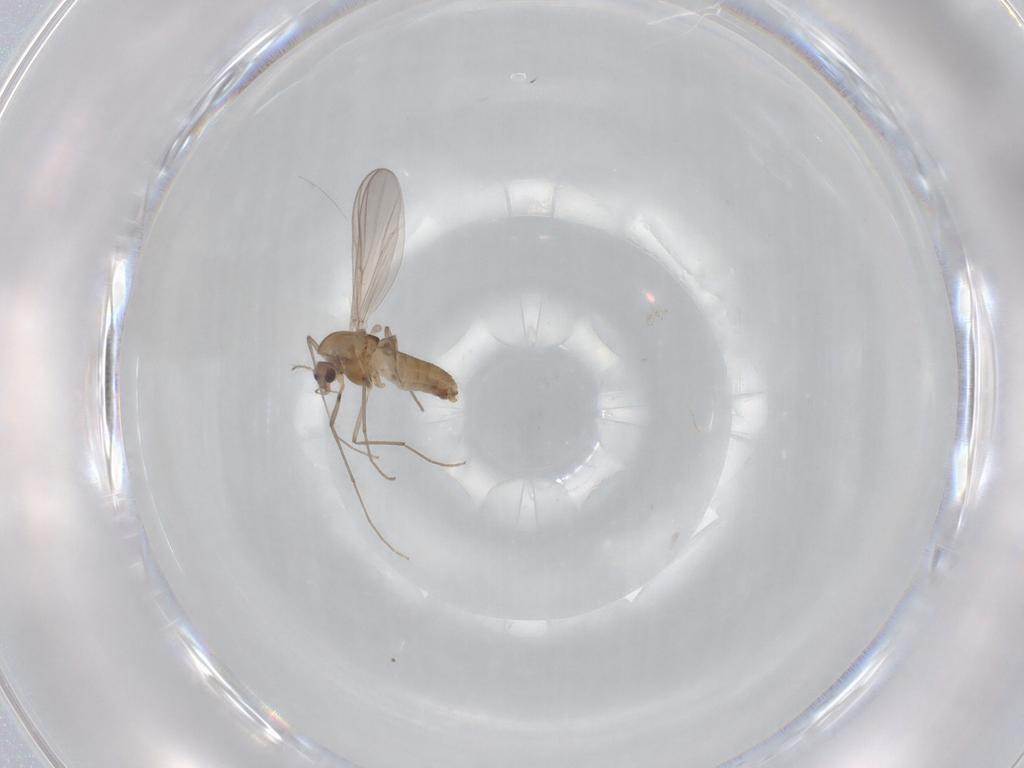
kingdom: Animalia
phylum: Arthropoda
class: Insecta
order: Diptera
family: Chironomidae
